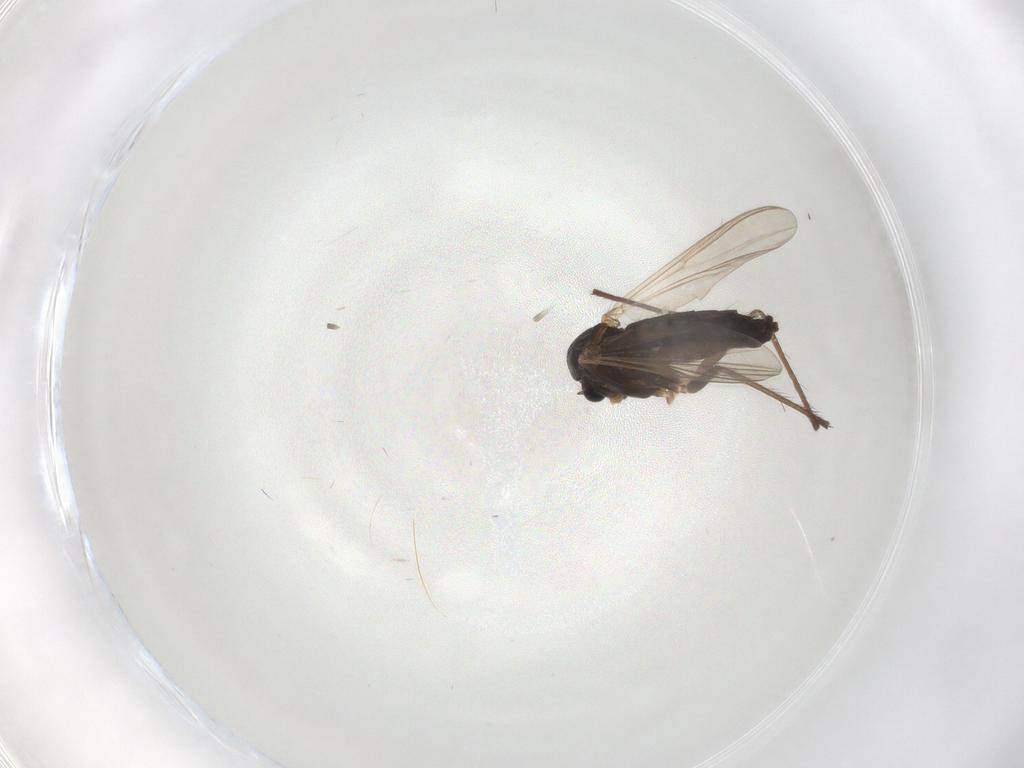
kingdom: Animalia
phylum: Arthropoda
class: Insecta
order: Diptera
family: Chironomidae
